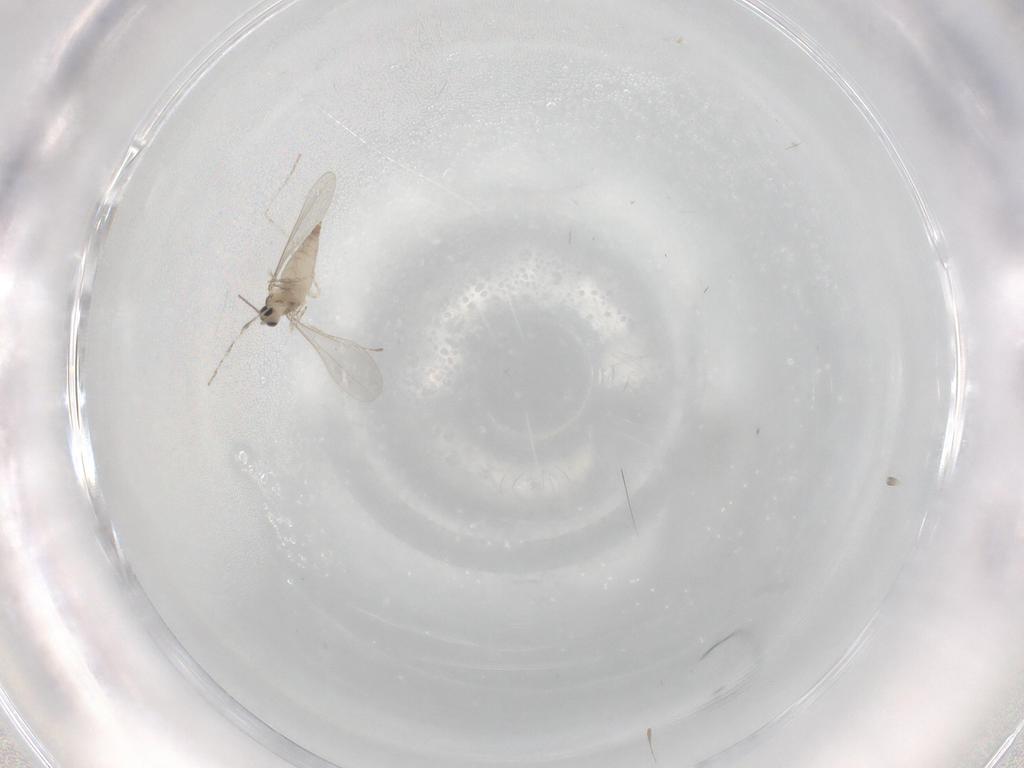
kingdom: Animalia
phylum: Arthropoda
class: Insecta
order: Diptera
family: Cecidomyiidae
